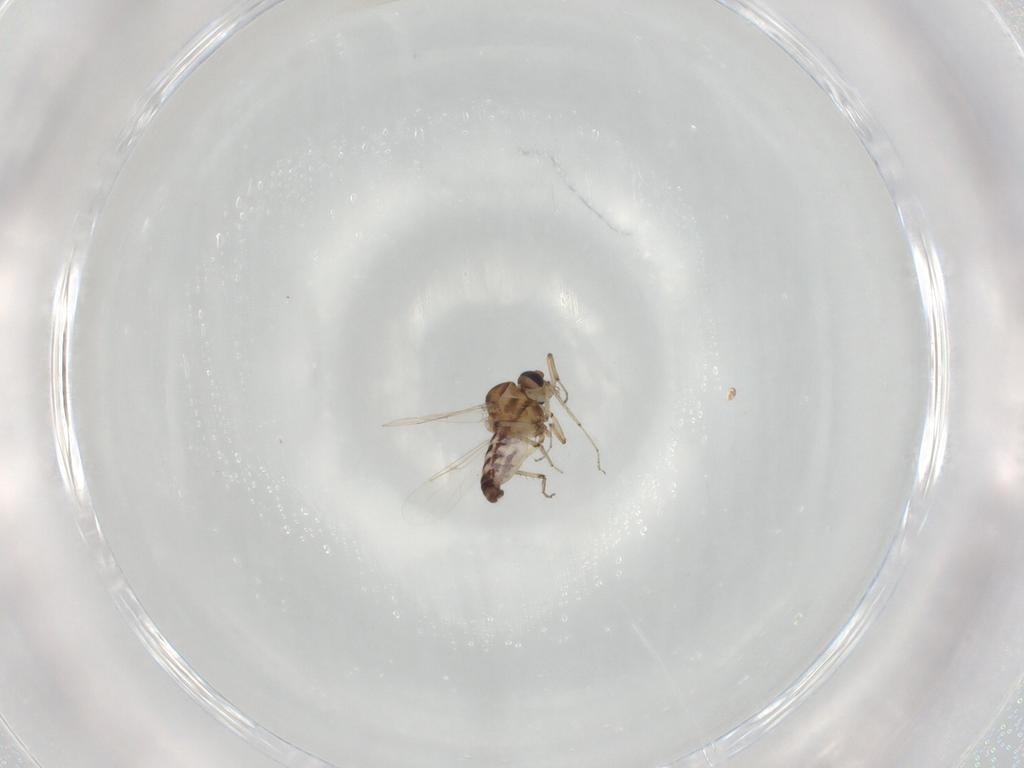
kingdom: Animalia
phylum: Arthropoda
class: Insecta
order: Diptera
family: Ceratopogonidae
